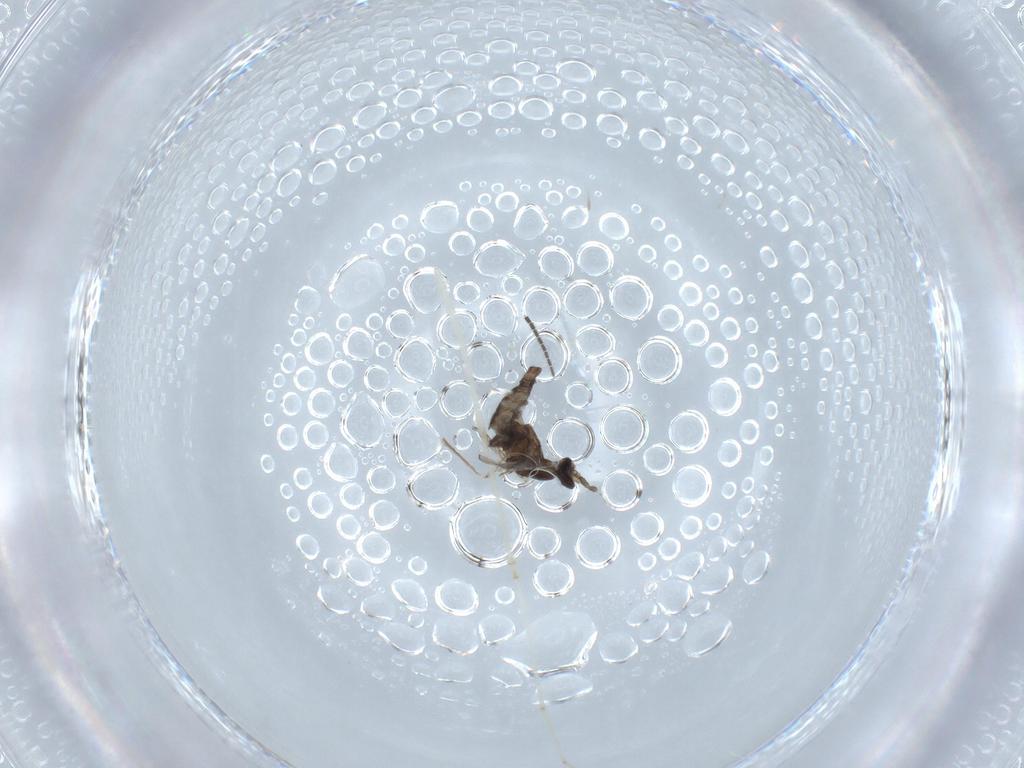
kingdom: Animalia
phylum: Arthropoda
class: Insecta
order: Diptera
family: Cecidomyiidae
